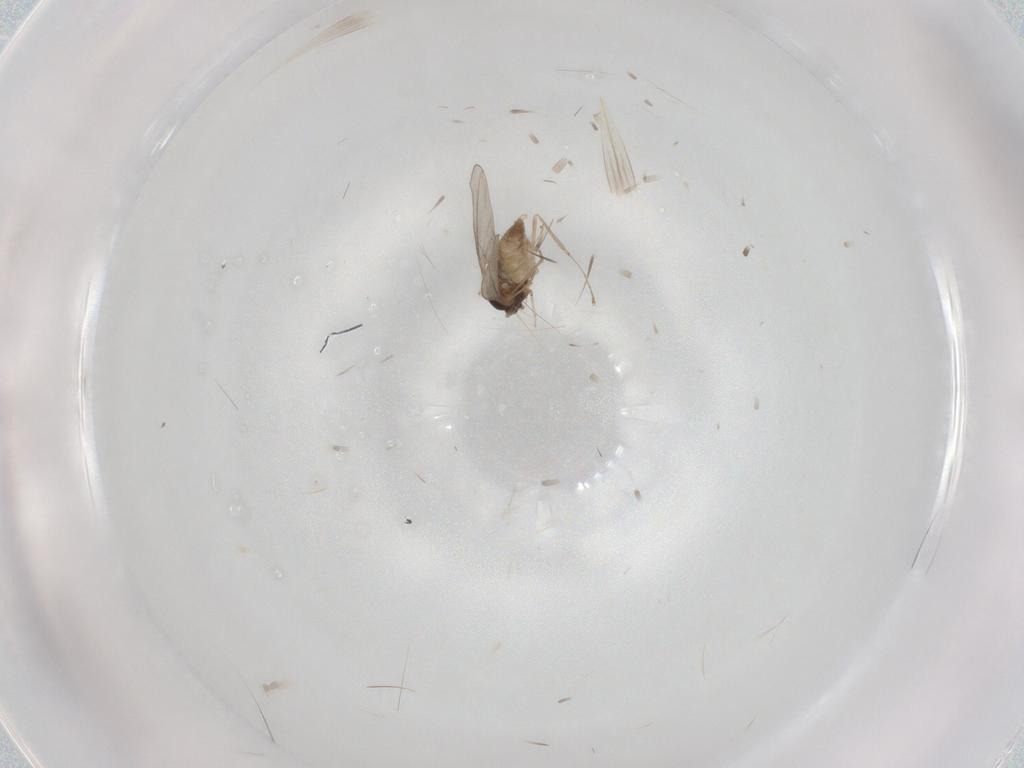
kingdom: Animalia
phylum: Arthropoda
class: Insecta
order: Diptera
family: Cecidomyiidae
